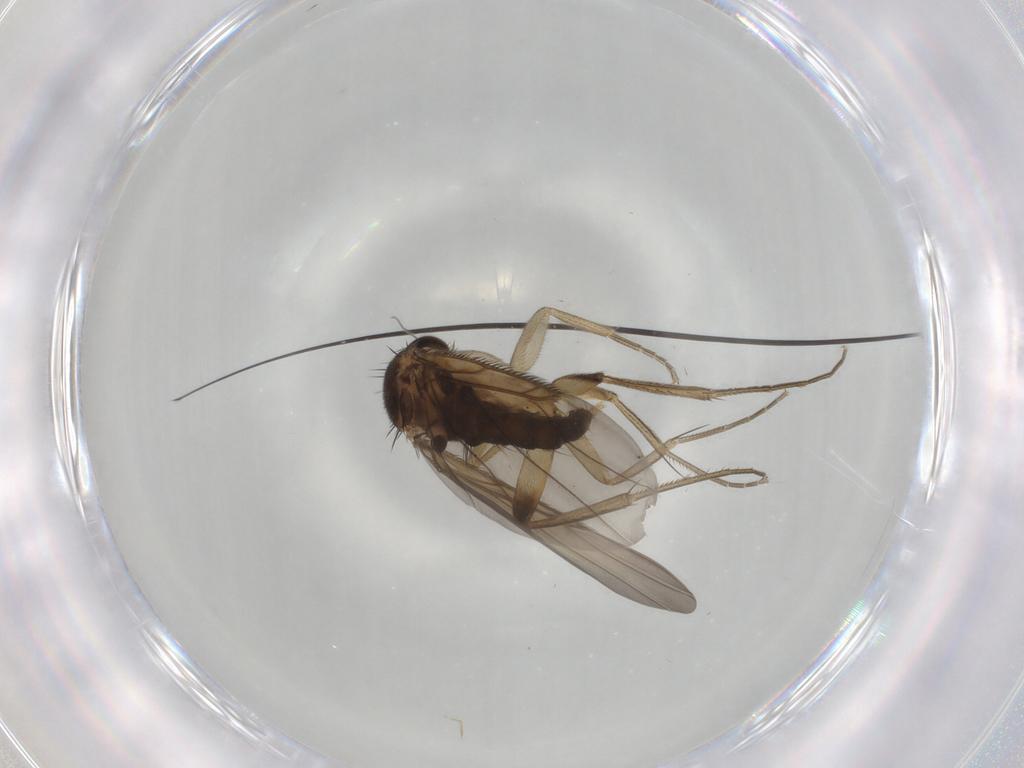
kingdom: Animalia
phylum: Arthropoda
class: Insecta
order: Diptera
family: Phoridae
